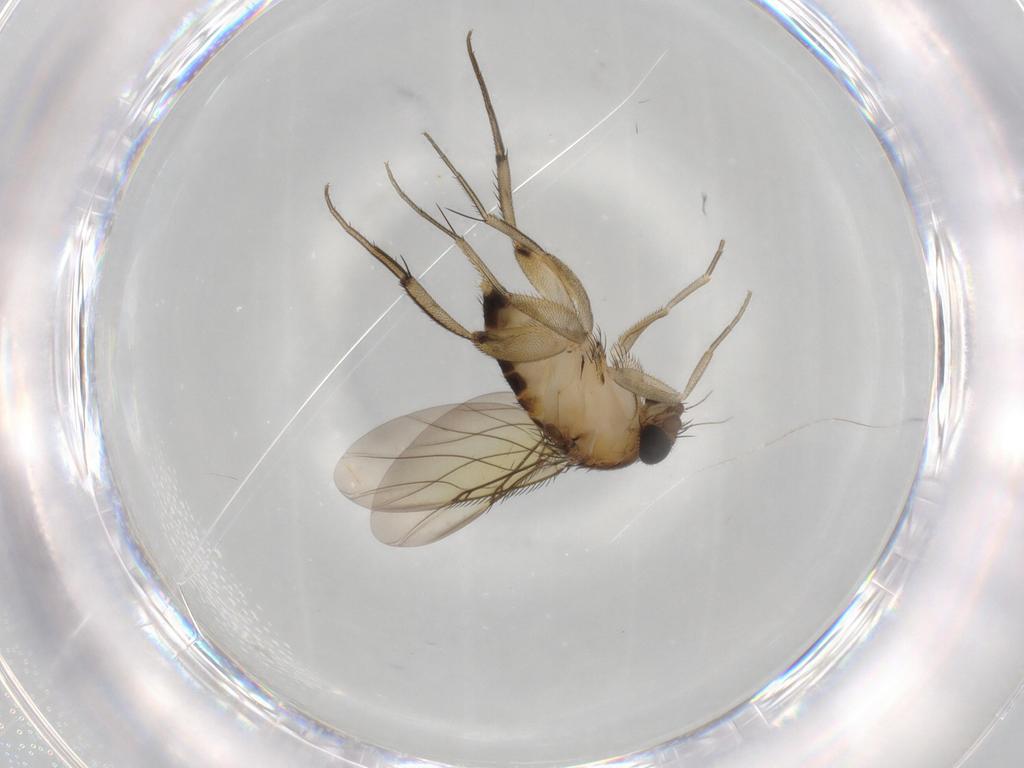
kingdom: Animalia
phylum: Arthropoda
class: Insecta
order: Diptera
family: Phoridae
